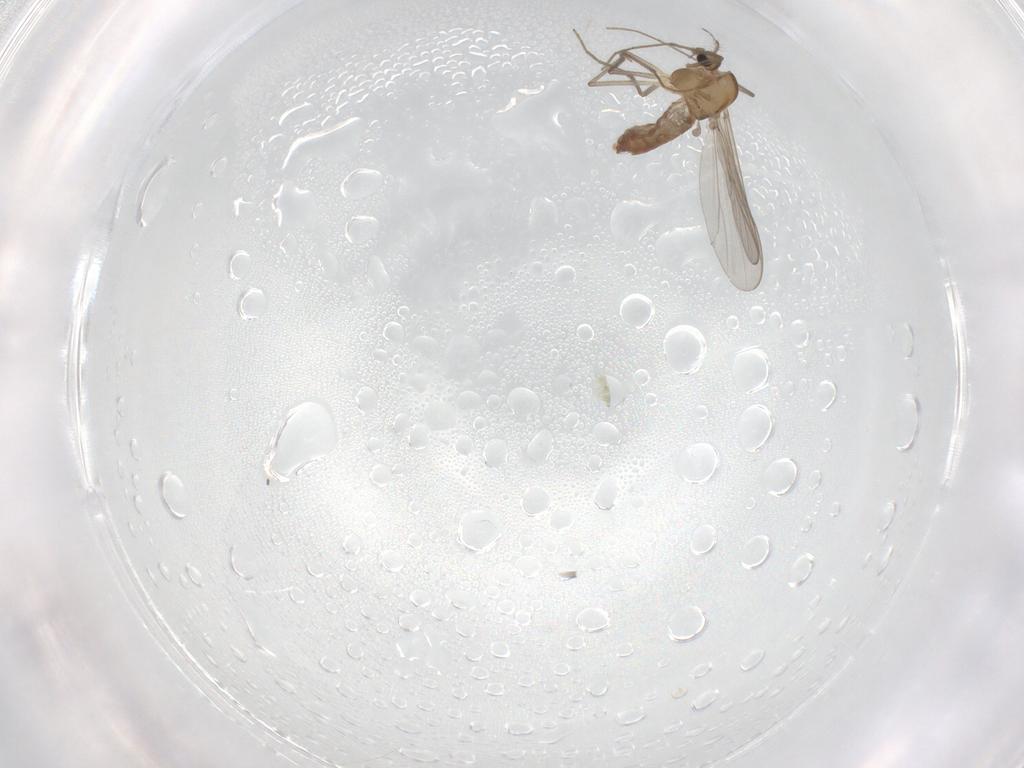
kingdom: Animalia
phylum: Arthropoda
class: Insecta
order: Diptera
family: Chironomidae
